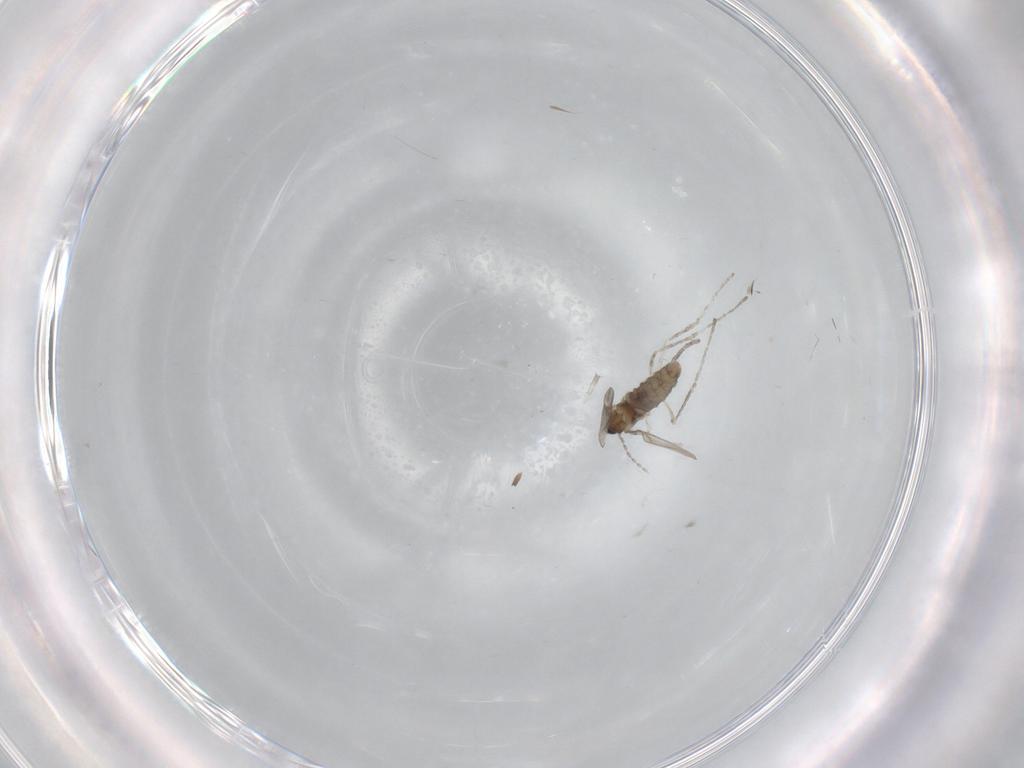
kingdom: Animalia
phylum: Arthropoda
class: Insecta
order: Diptera
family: Cecidomyiidae
